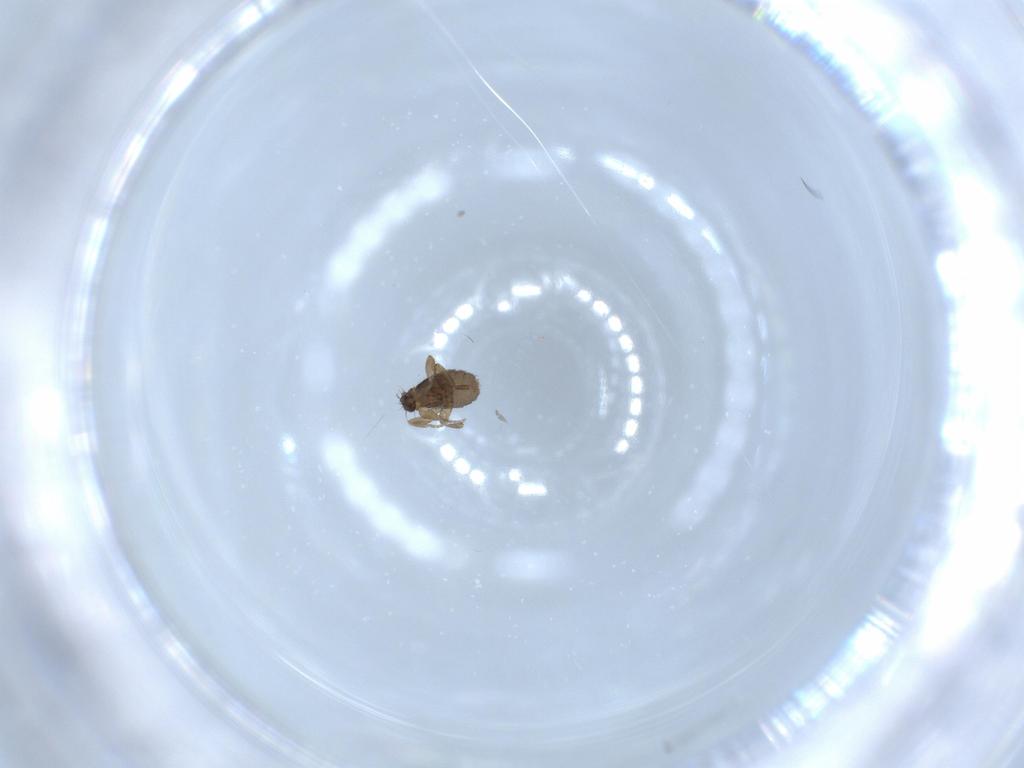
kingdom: Animalia
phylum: Arthropoda
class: Insecta
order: Diptera
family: Phoridae
